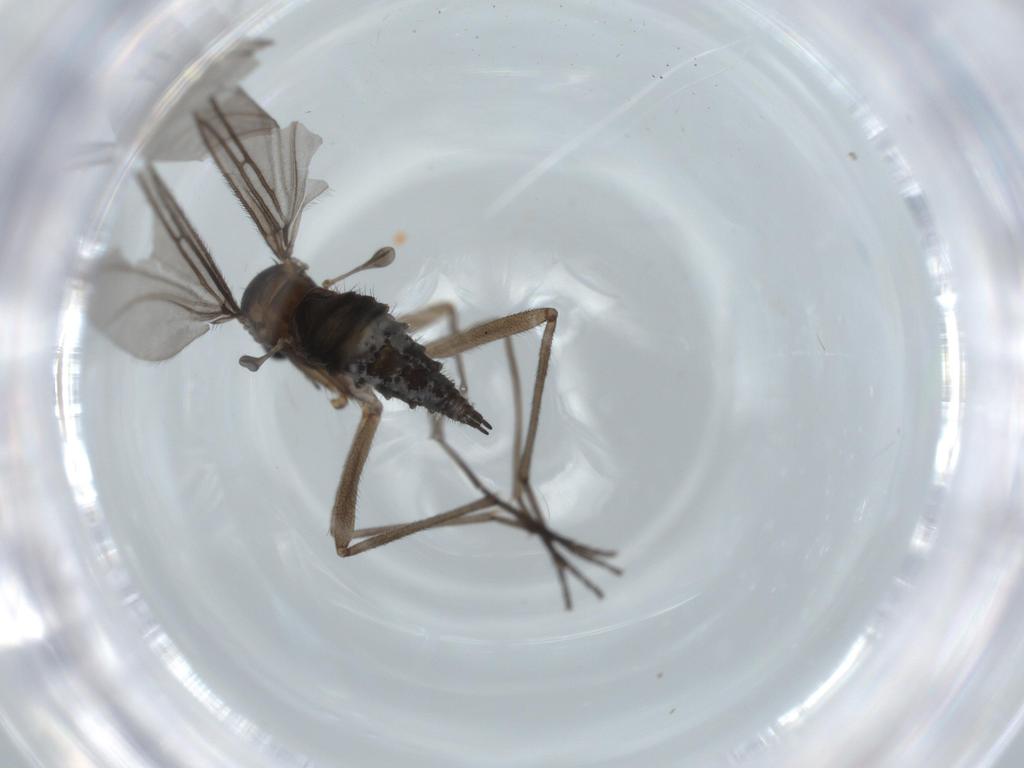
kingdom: Animalia
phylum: Arthropoda
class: Insecta
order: Diptera
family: Sciaridae
